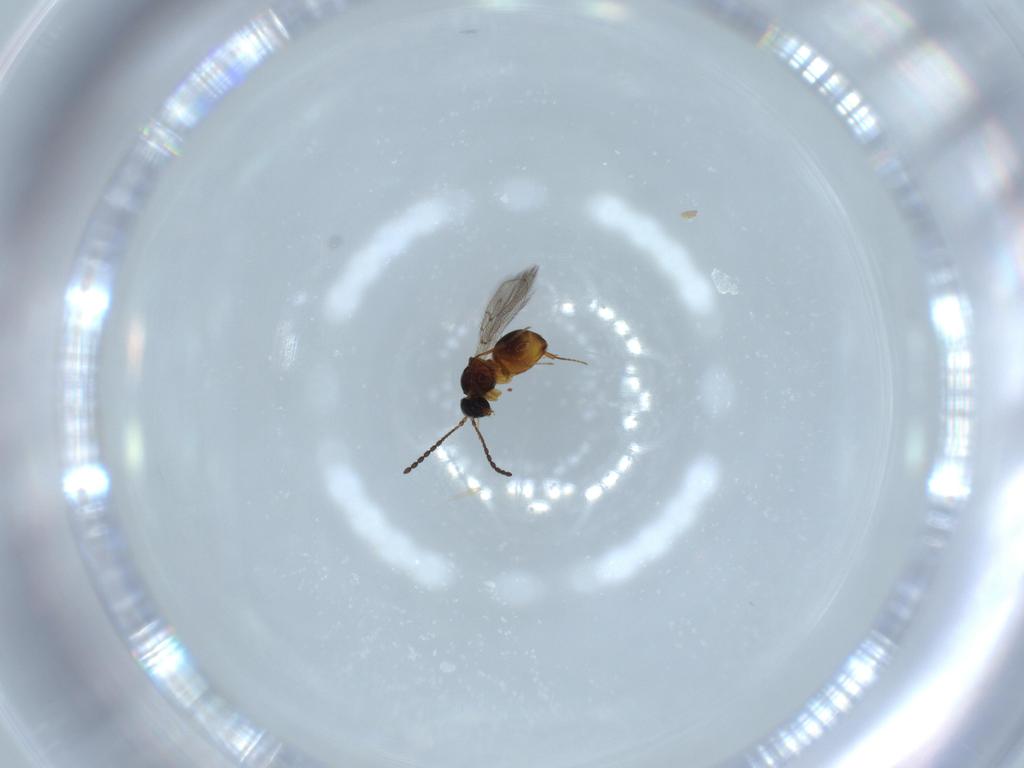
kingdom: Animalia
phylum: Arthropoda
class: Insecta
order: Hymenoptera
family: Figitidae
